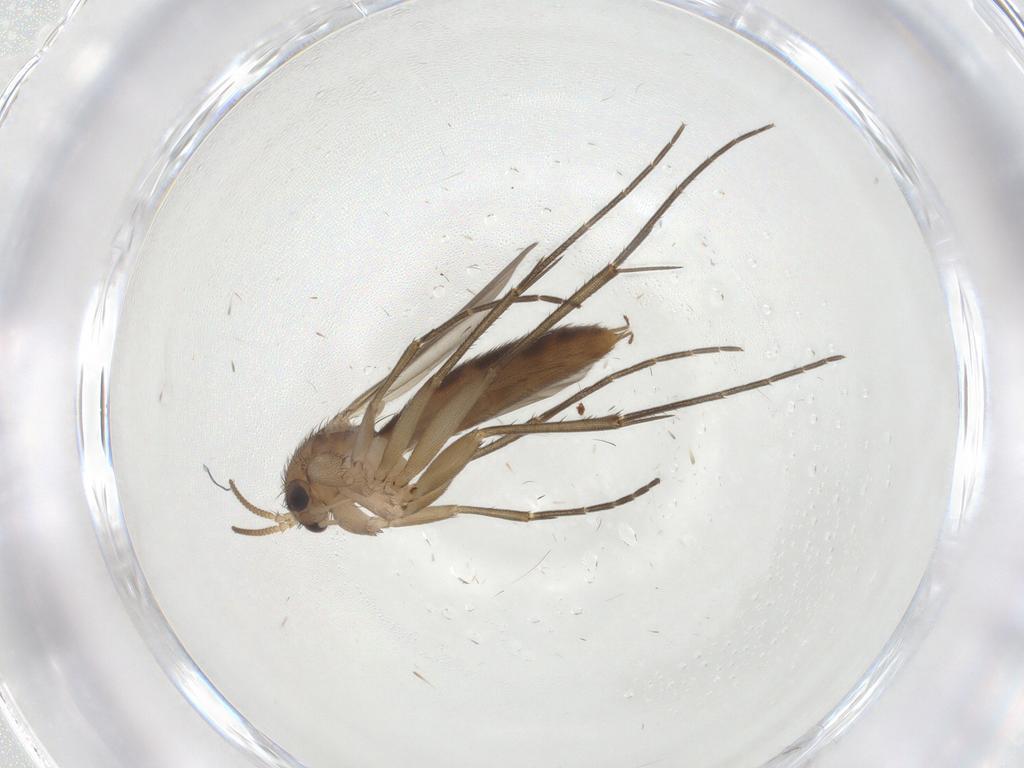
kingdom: Animalia
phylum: Arthropoda
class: Insecta
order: Diptera
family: Mycetophilidae
